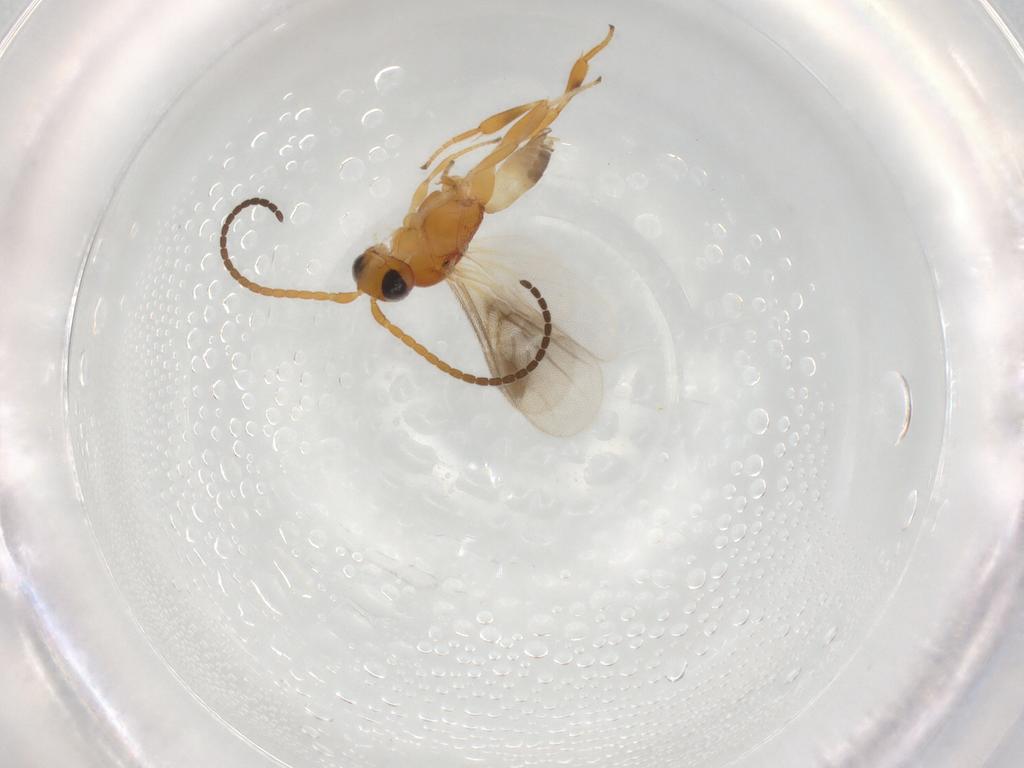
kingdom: Animalia
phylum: Arthropoda
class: Insecta
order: Hymenoptera
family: Braconidae
